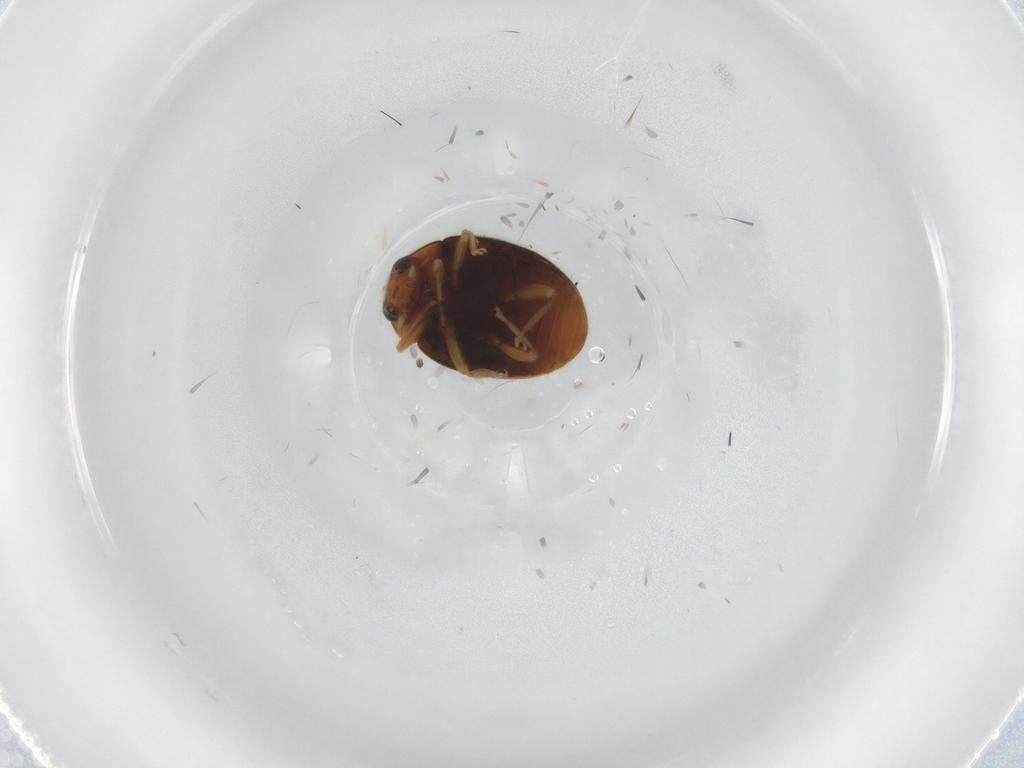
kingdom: Animalia
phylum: Arthropoda
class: Insecta
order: Coleoptera
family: Coccinellidae
